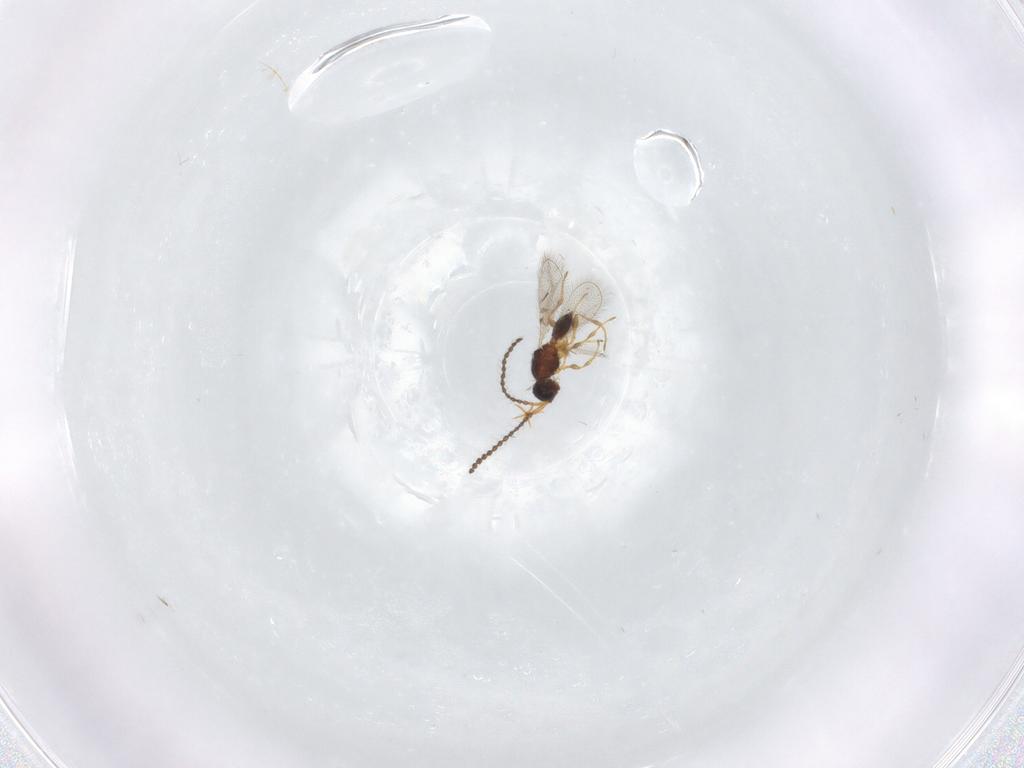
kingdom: Animalia
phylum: Arthropoda
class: Insecta
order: Hymenoptera
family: Diapriidae
